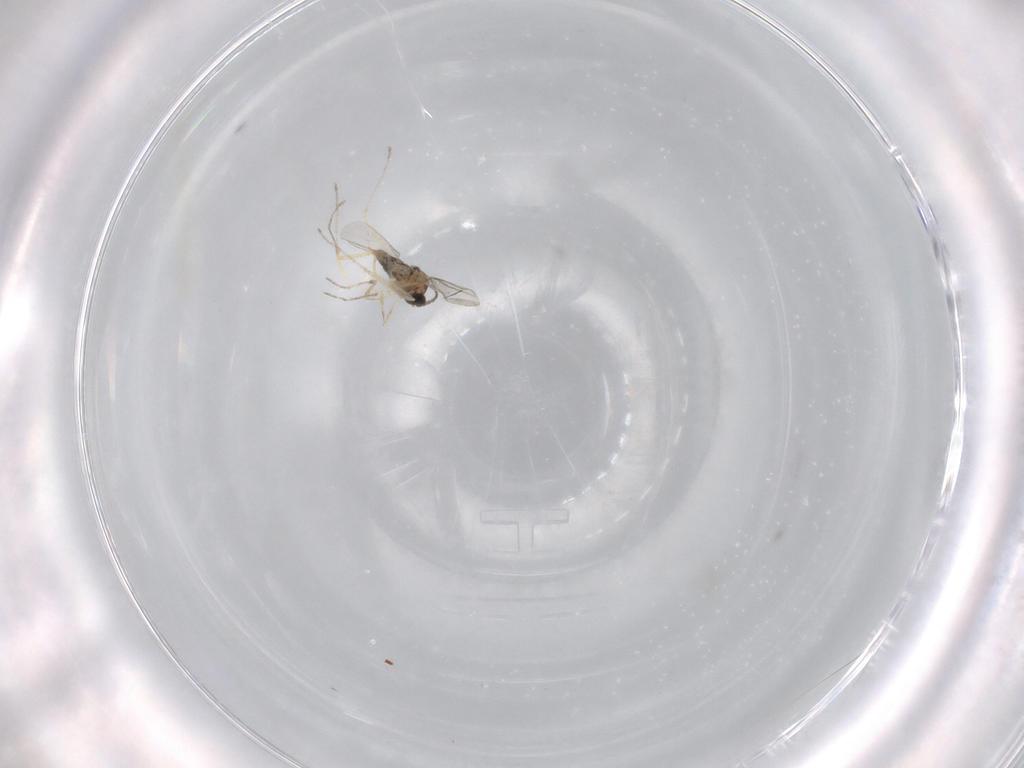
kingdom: Animalia
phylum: Arthropoda
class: Insecta
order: Diptera
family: Cecidomyiidae
